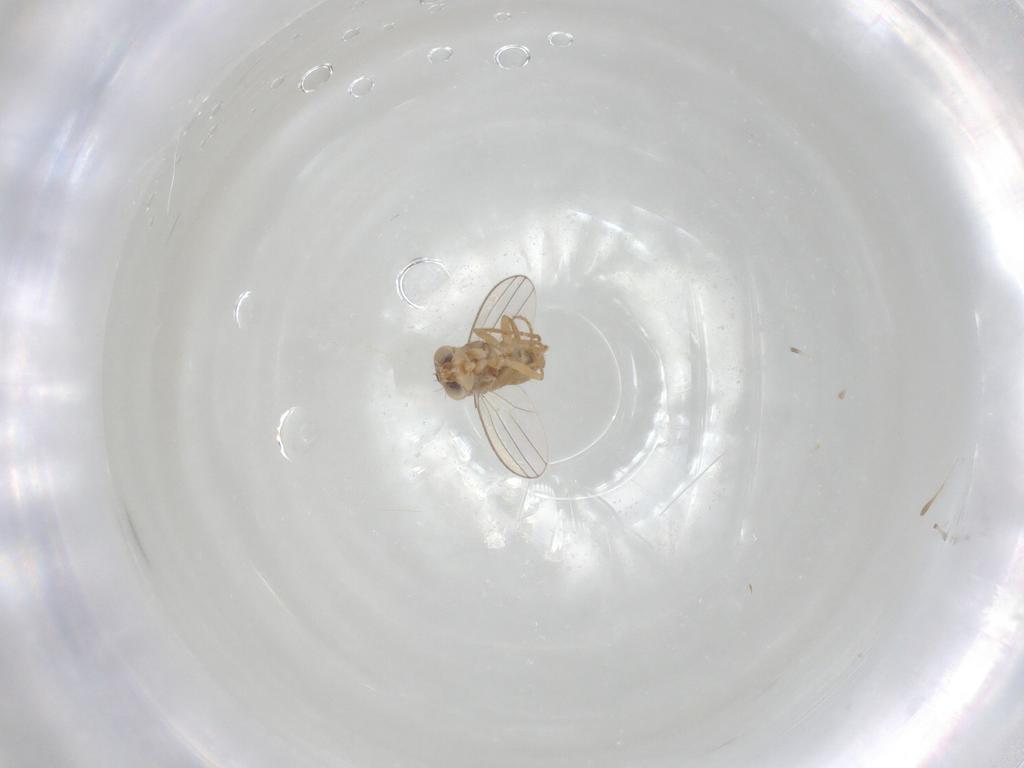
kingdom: Animalia
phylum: Arthropoda
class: Insecta
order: Diptera
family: Chyromyidae
